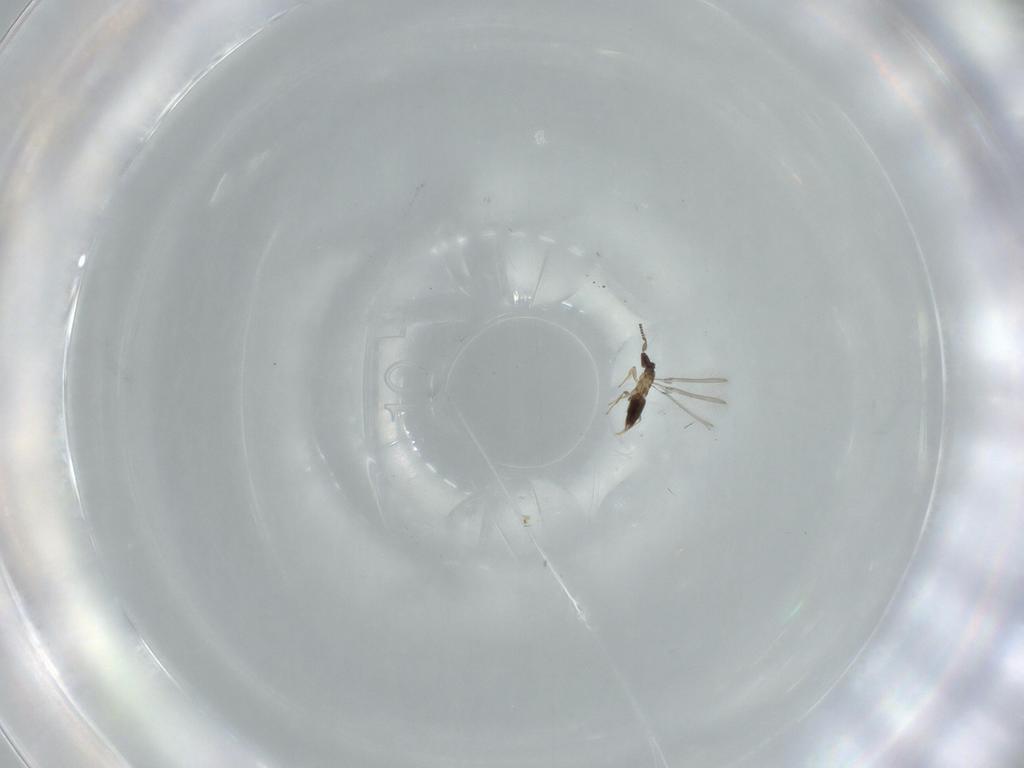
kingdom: Animalia
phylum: Arthropoda
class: Insecta
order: Hymenoptera
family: Mymaridae
